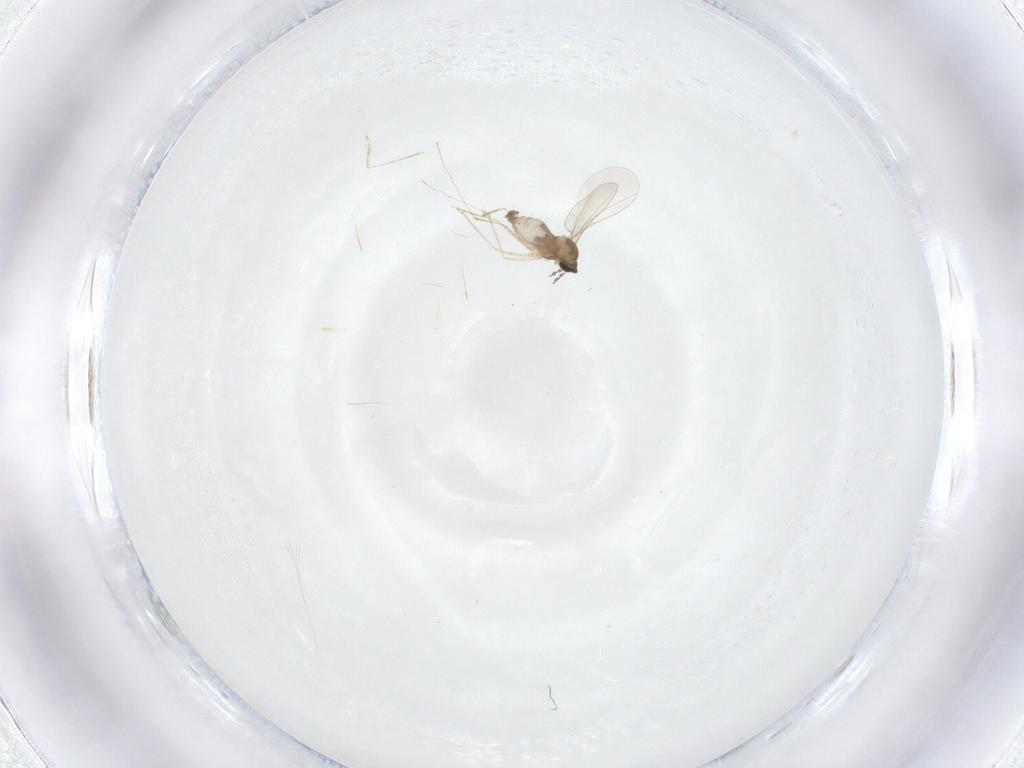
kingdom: Animalia
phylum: Arthropoda
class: Insecta
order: Diptera
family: Cecidomyiidae
